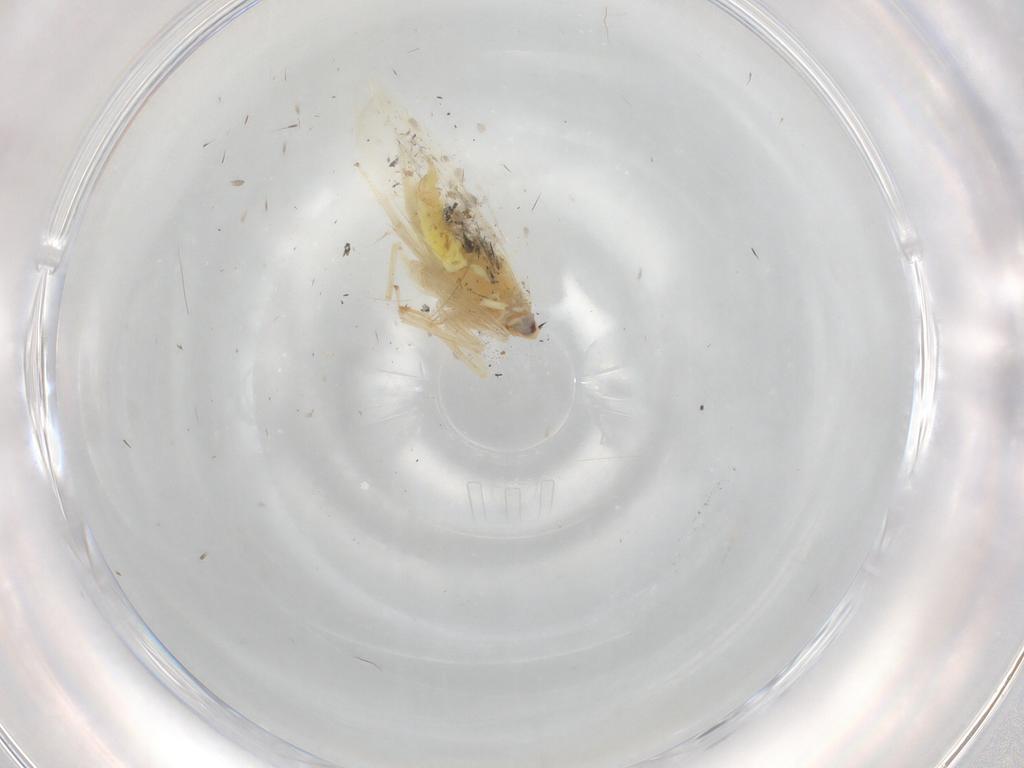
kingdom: Animalia
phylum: Arthropoda
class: Insecta
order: Hemiptera
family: Cicadellidae
